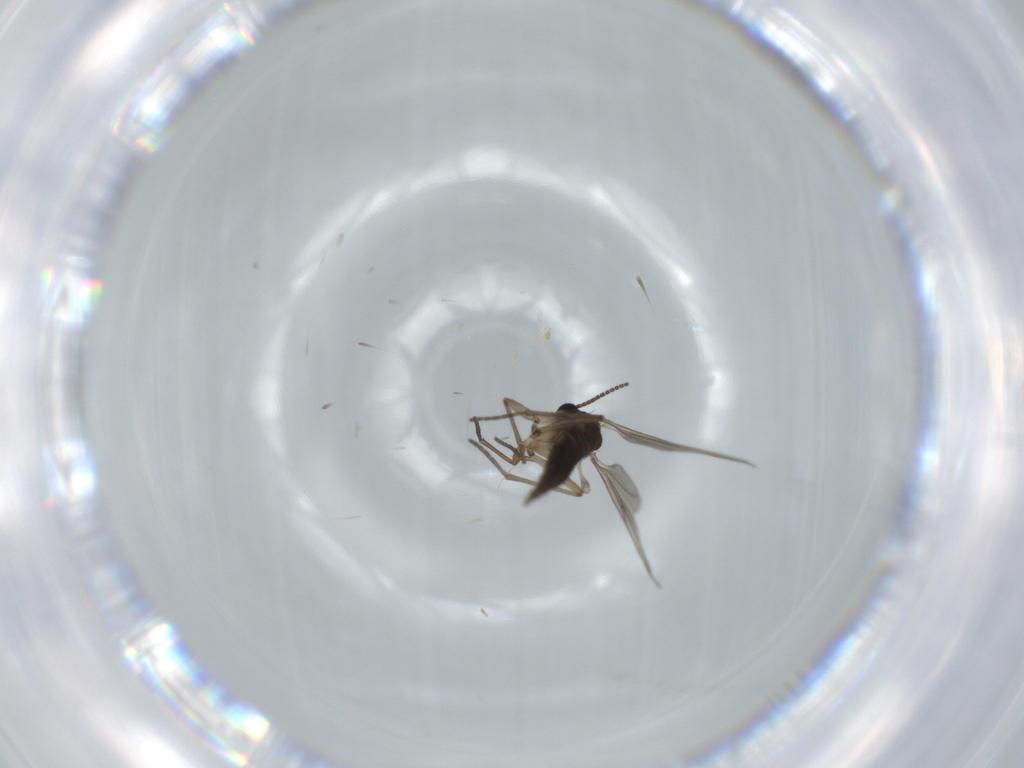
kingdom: Animalia
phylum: Arthropoda
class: Insecta
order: Diptera
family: Sciaridae
